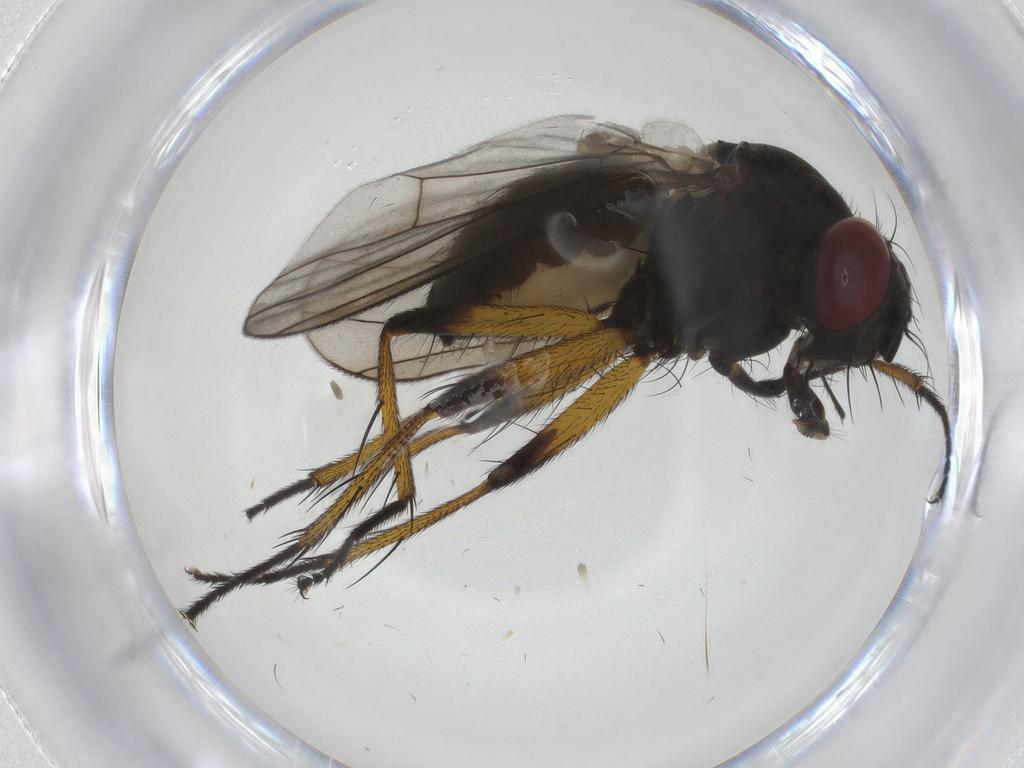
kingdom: Animalia
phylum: Arthropoda
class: Insecta
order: Diptera
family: Muscidae
